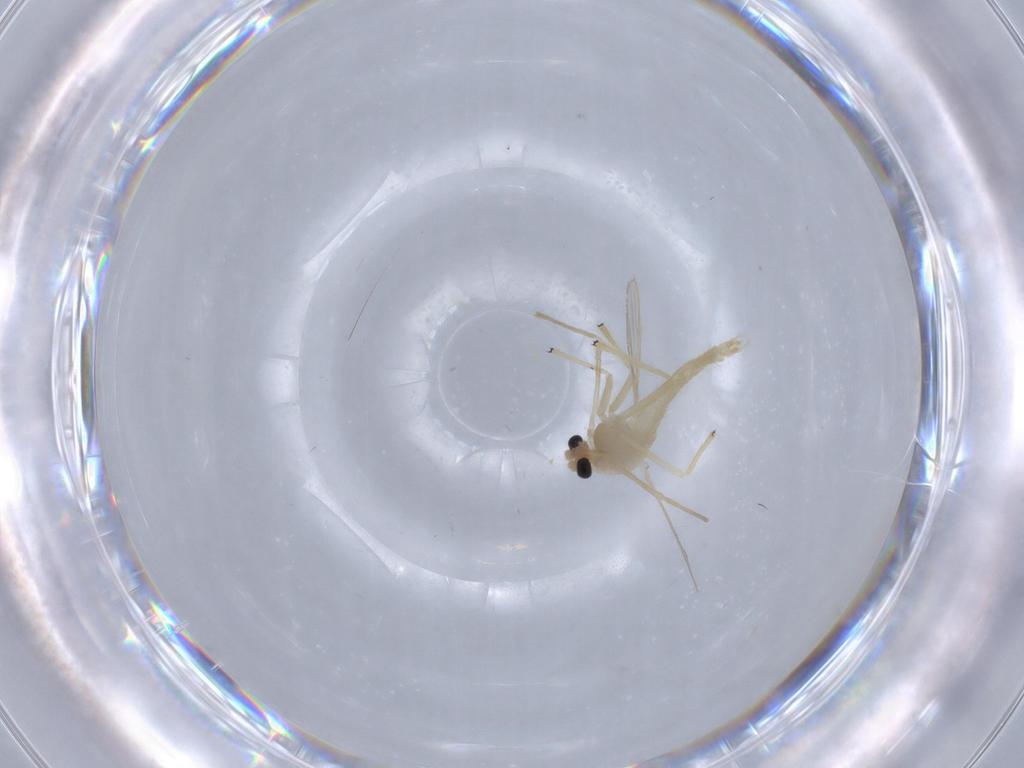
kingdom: Animalia
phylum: Arthropoda
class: Insecta
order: Diptera
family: Chironomidae
